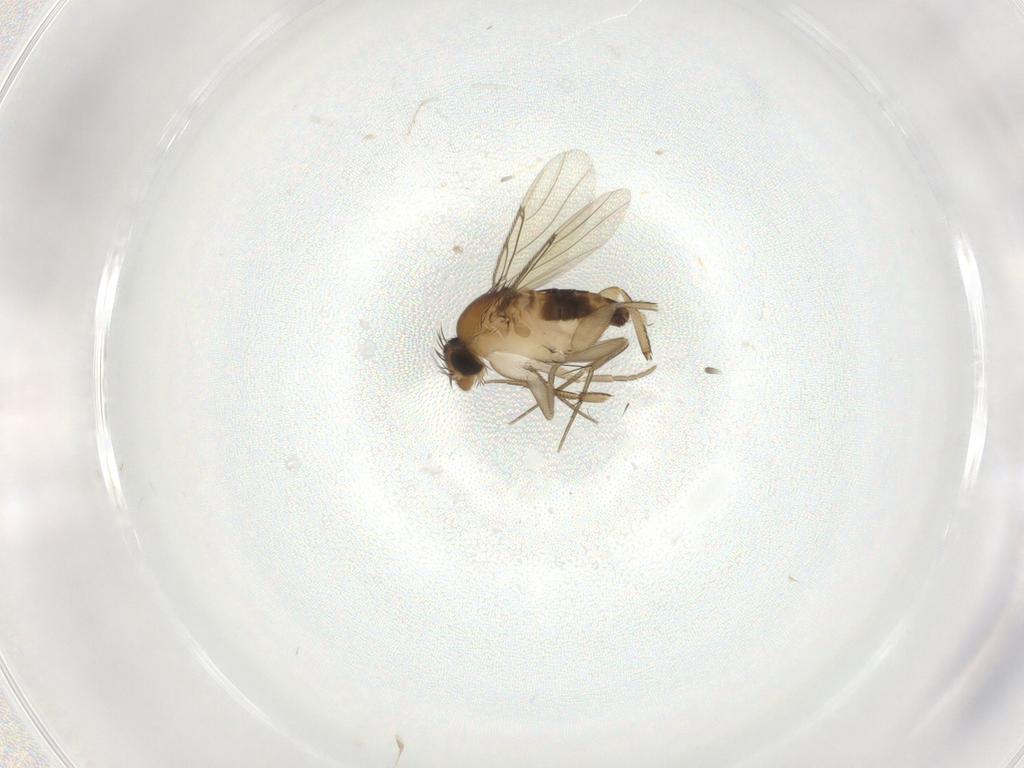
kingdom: Animalia
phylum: Arthropoda
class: Insecta
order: Diptera
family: Phoridae
